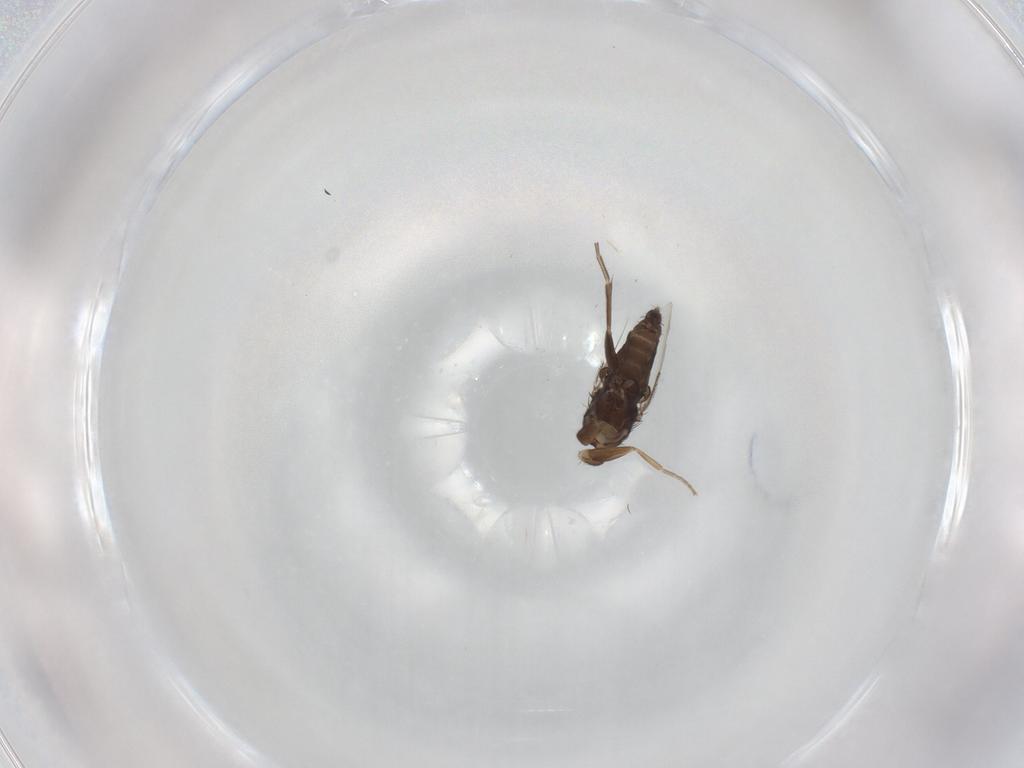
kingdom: Animalia
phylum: Arthropoda
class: Insecta
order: Diptera
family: Phoridae
